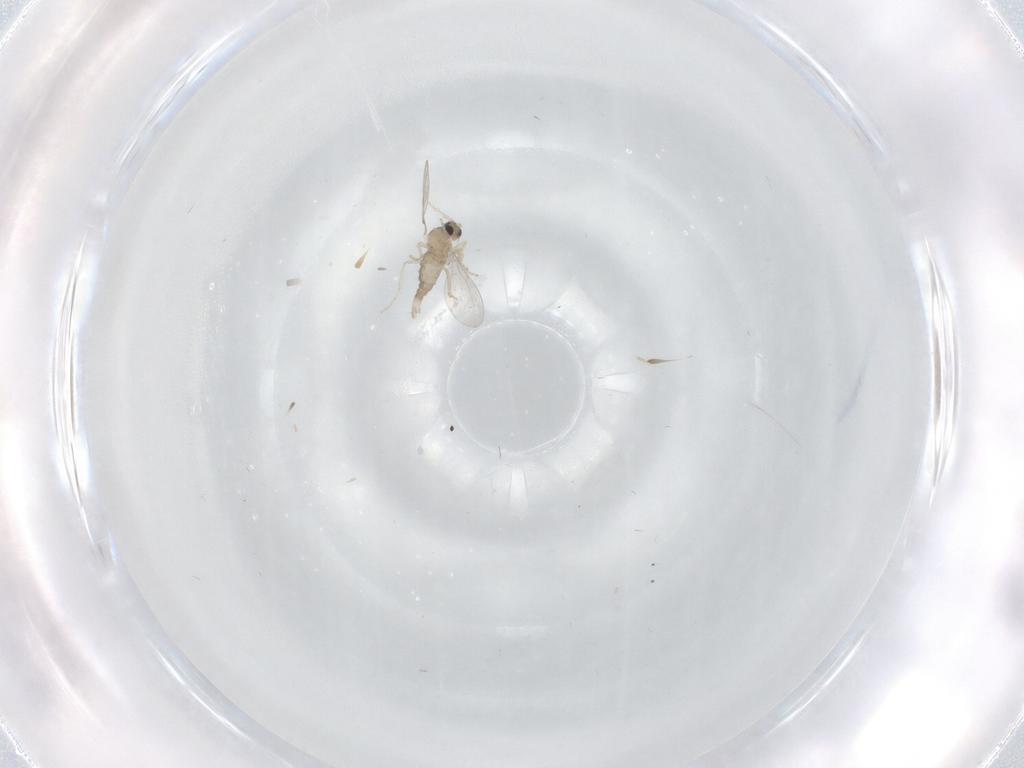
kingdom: Animalia
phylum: Arthropoda
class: Insecta
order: Diptera
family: Cecidomyiidae
